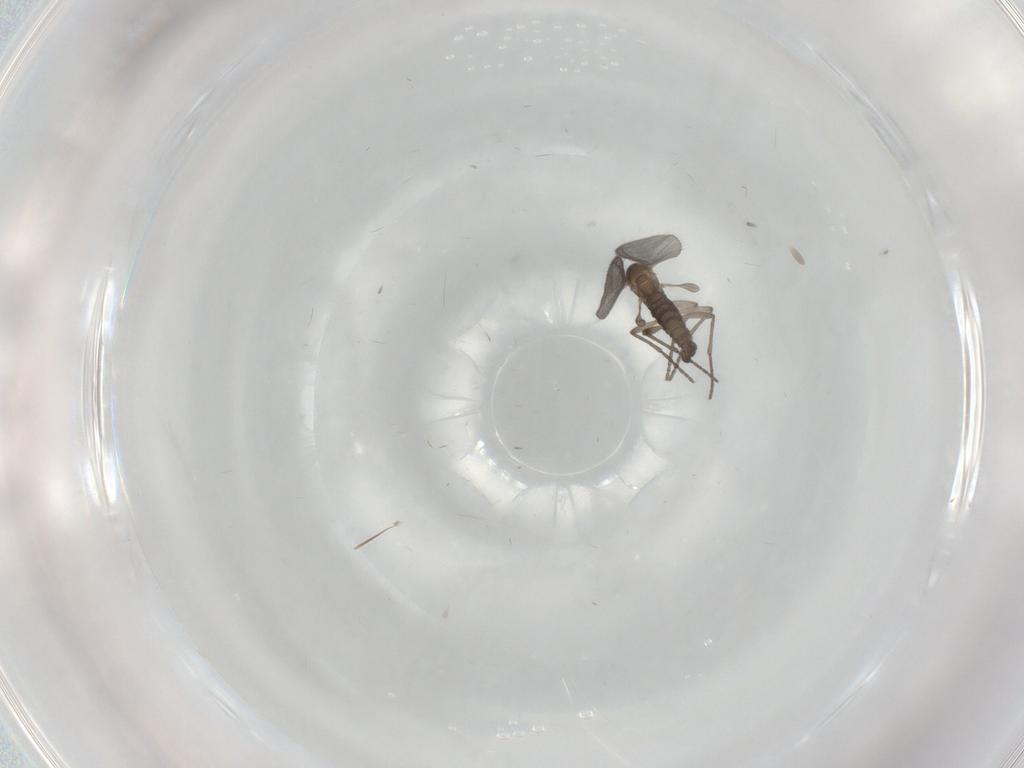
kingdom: Animalia
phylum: Arthropoda
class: Insecta
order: Diptera
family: Sciaridae
